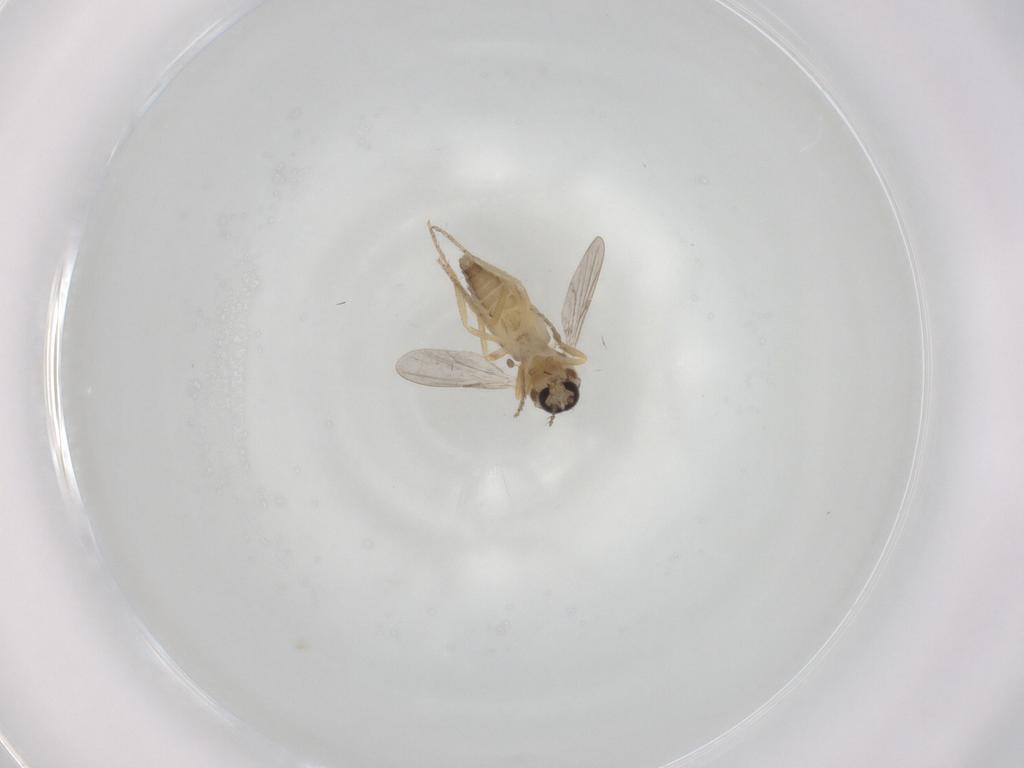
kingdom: Animalia
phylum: Arthropoda
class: Insecta
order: Diptera
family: Ceratopogonidae
